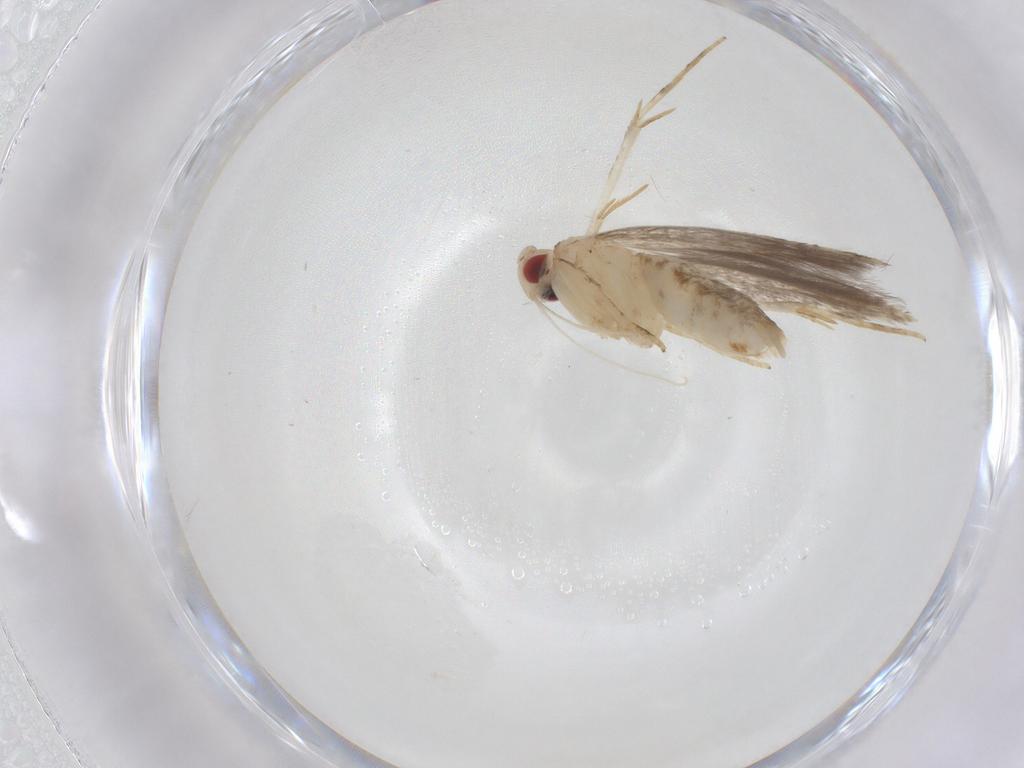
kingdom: Animalia
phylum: Arthropoda
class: Insecta
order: Lepidoptera
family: Cosmopterigidae
